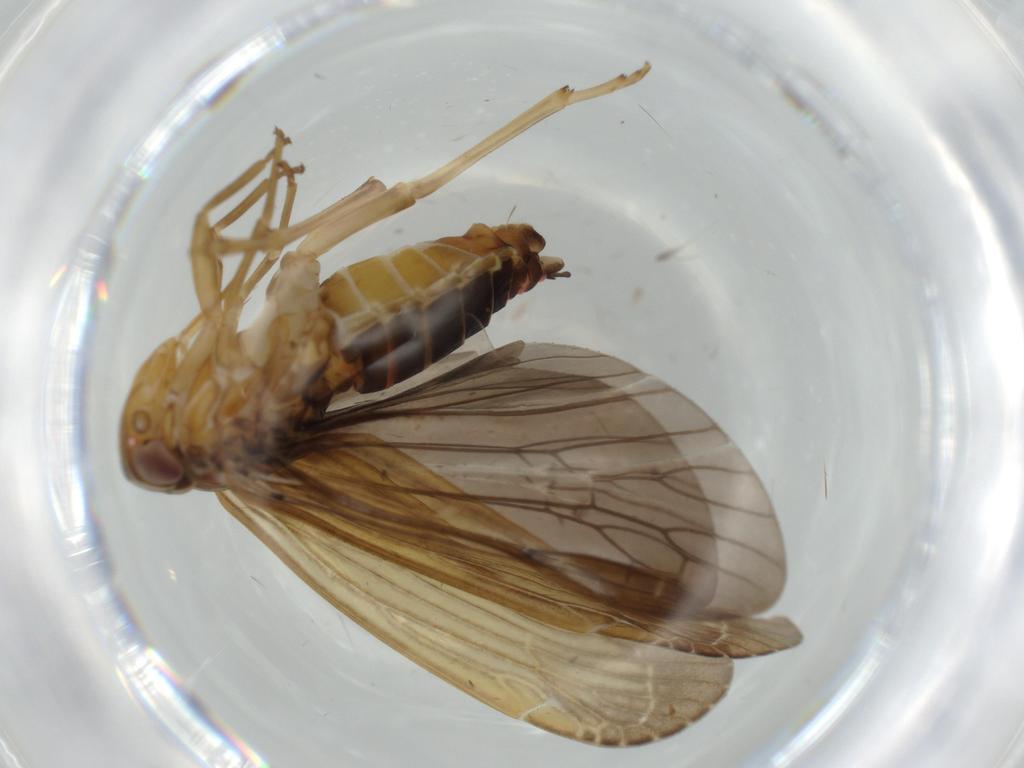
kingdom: Animalia
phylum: Arthropoda
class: Insecta
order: Hemiptera
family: Achilidae
